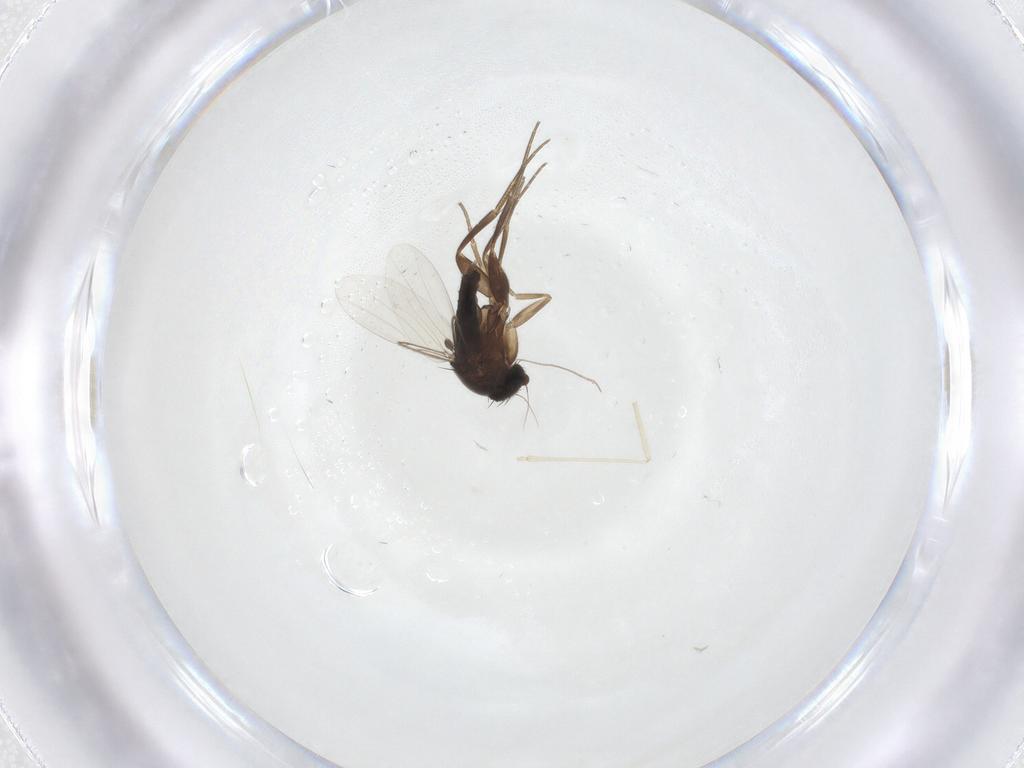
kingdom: Animalia
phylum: Arthropoda
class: Insecta
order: Diptera
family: Phoridae
